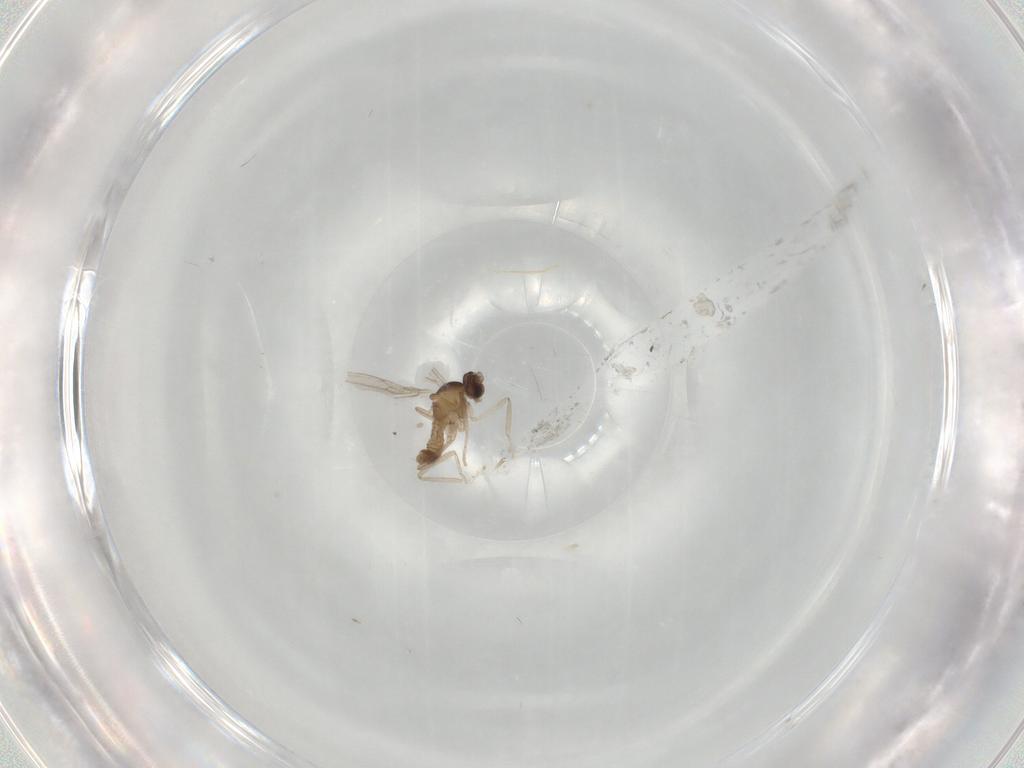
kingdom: Animalia
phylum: Arthropoda
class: Insecta
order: Diptera
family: Cecidomyiidae
